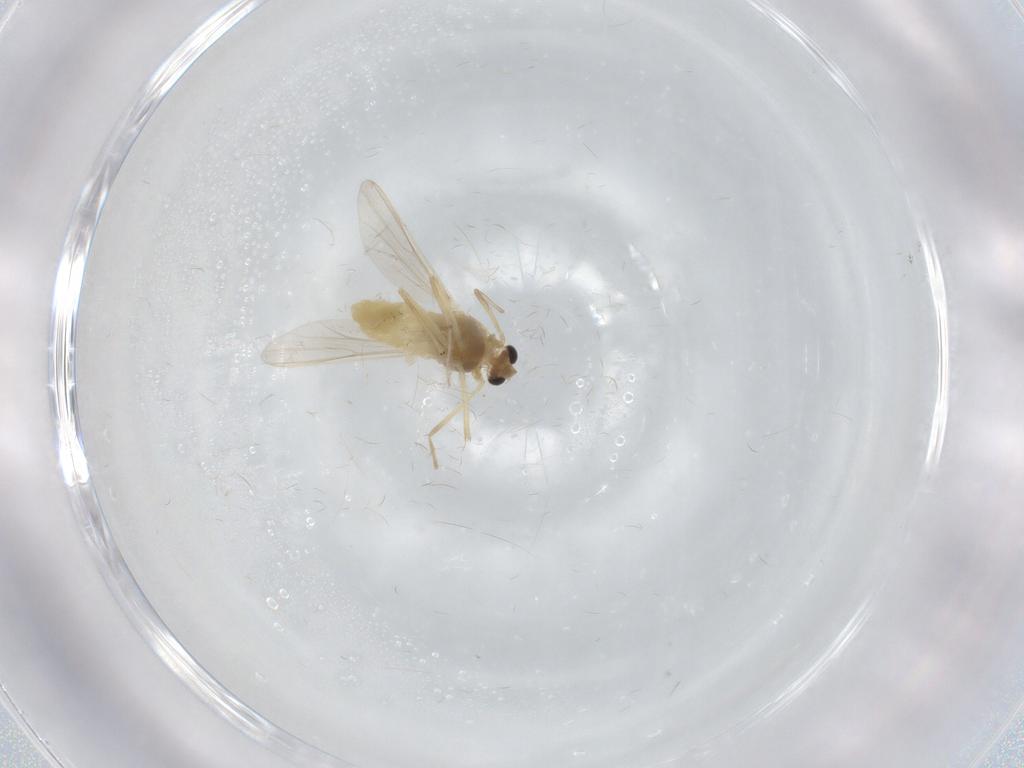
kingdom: Animalia
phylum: Arthropoda
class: Insecta
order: Diptera
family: Chironomidae
